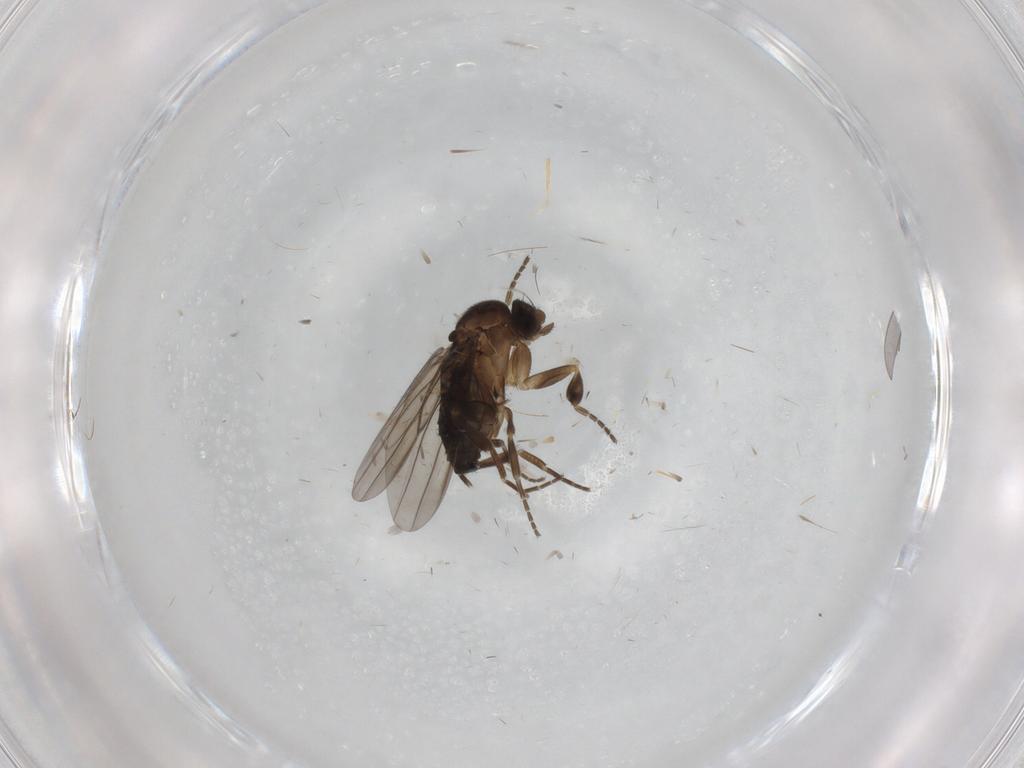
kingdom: Animalia
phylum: Arthropoda
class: Insecta
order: Diptera
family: Phoridae
